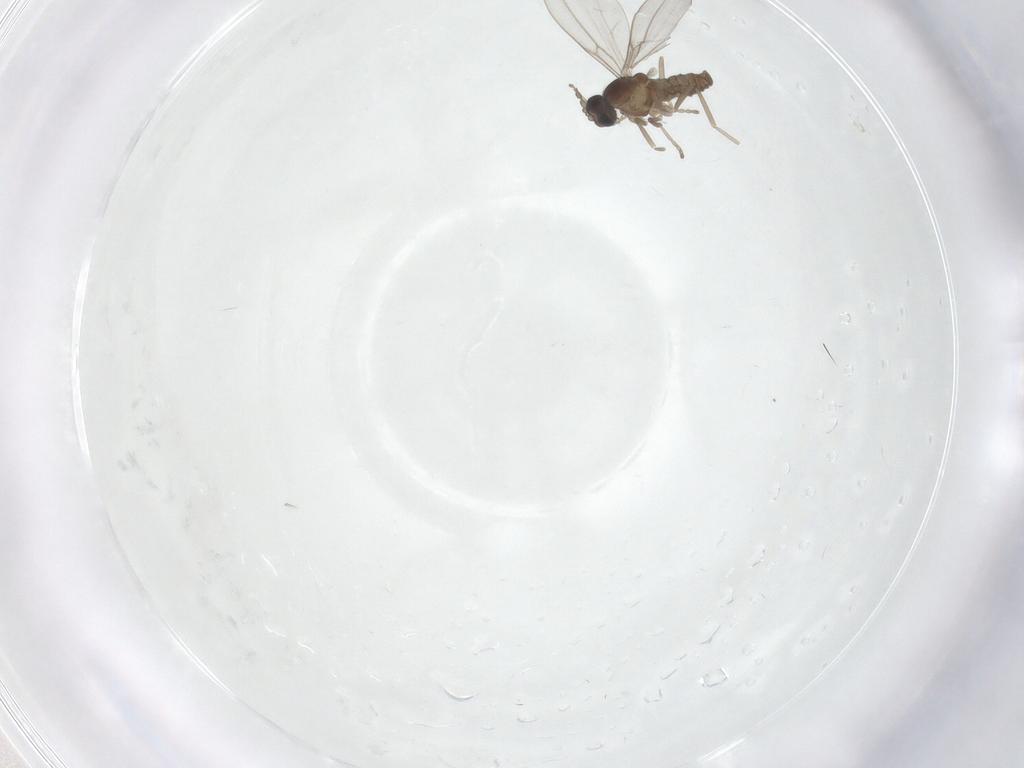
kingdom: Animalia
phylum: Arthropoda
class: Insecta
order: Diptera
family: Cecidomyiidae
